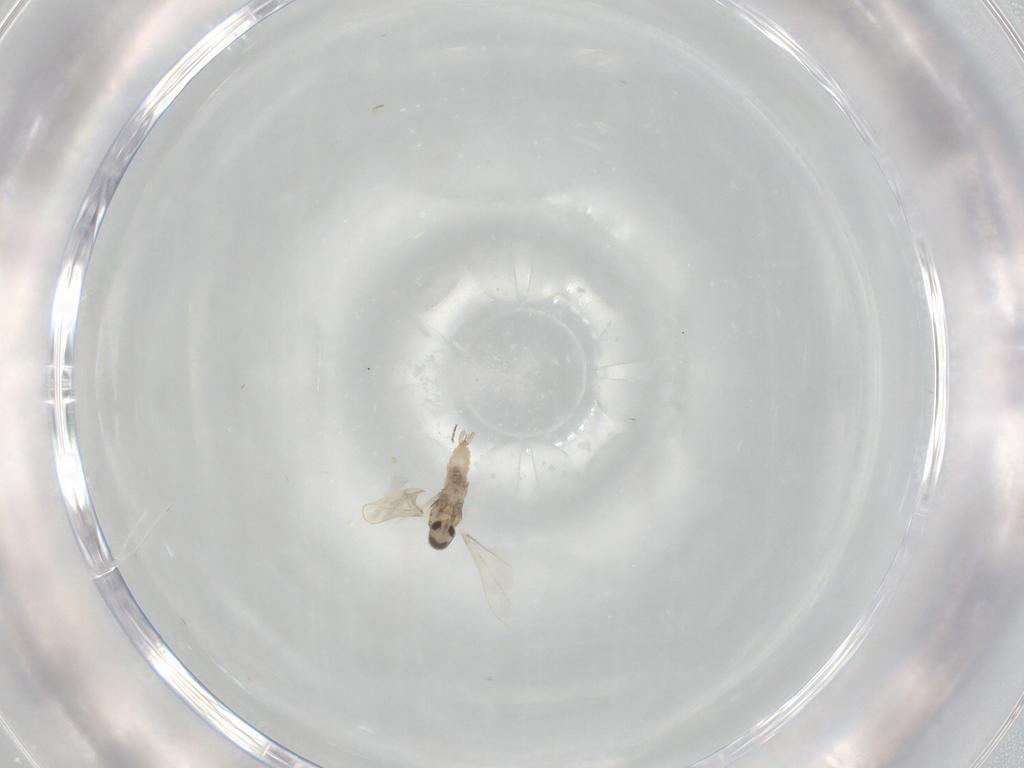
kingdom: Animalia
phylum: Arthropoda
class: Insecta
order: Diptera
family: Cecidomyiidae
